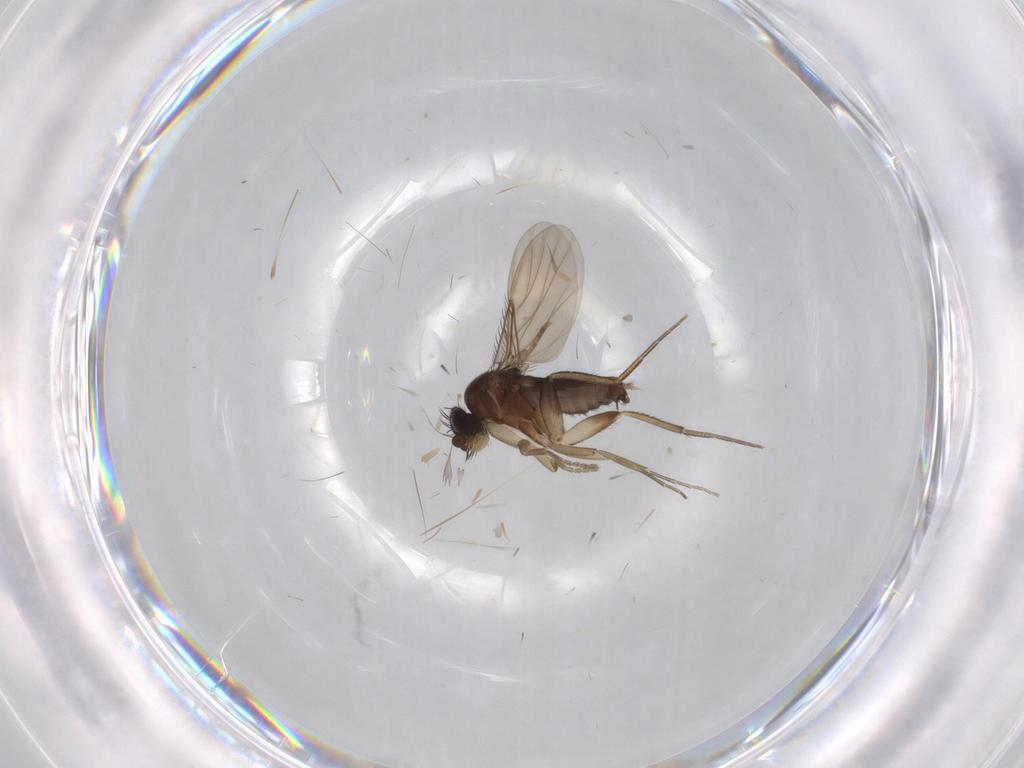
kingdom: Animalia
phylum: Arthropoda
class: Insecta
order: Diptera
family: Phoridae
